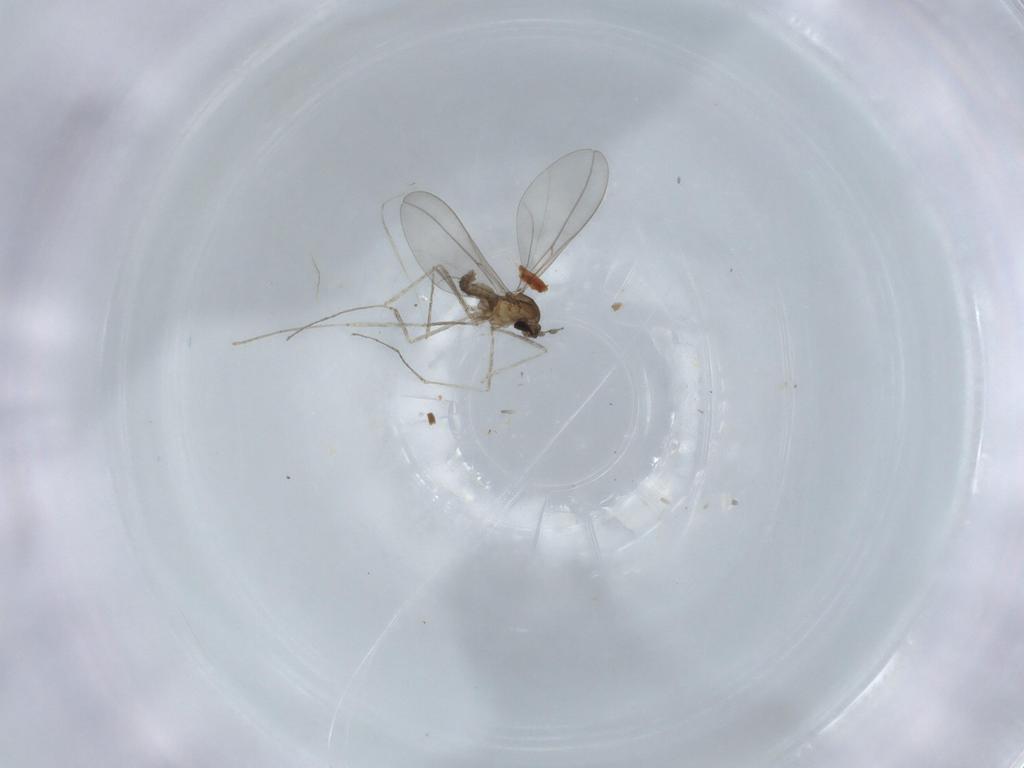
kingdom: Animalia
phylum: Arthropoda
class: Insecta
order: Diptera
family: Cecidomyiidae
